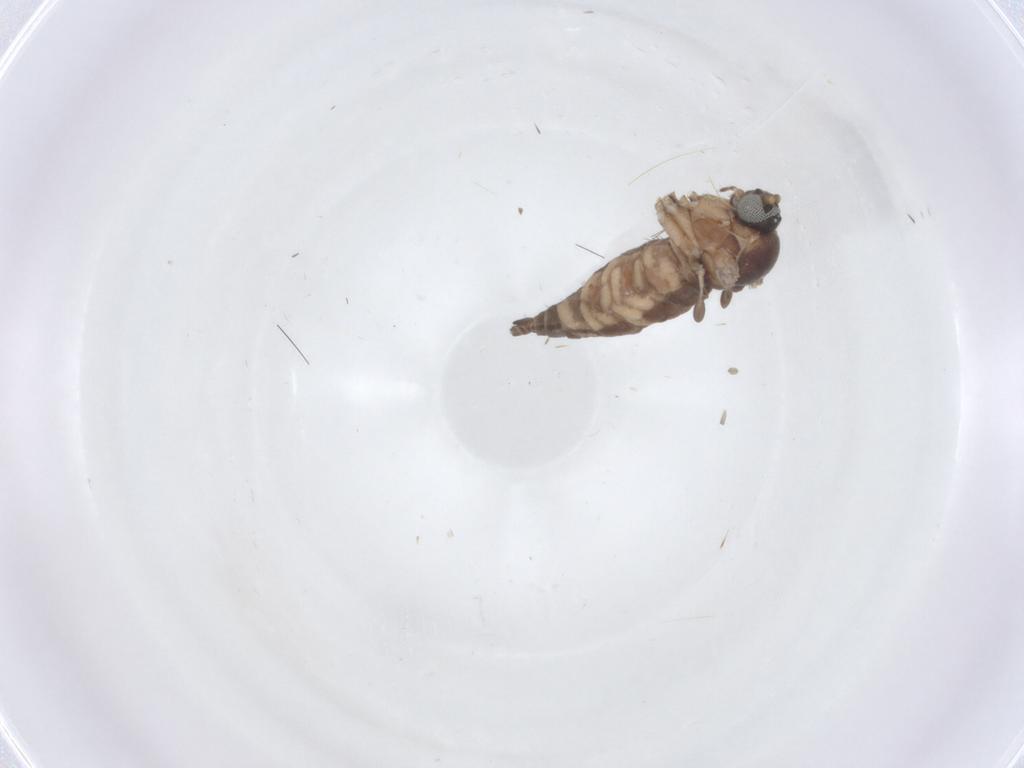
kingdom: Animalia
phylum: Arthropoda
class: Insecta
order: Diptera
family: Sciaridae
